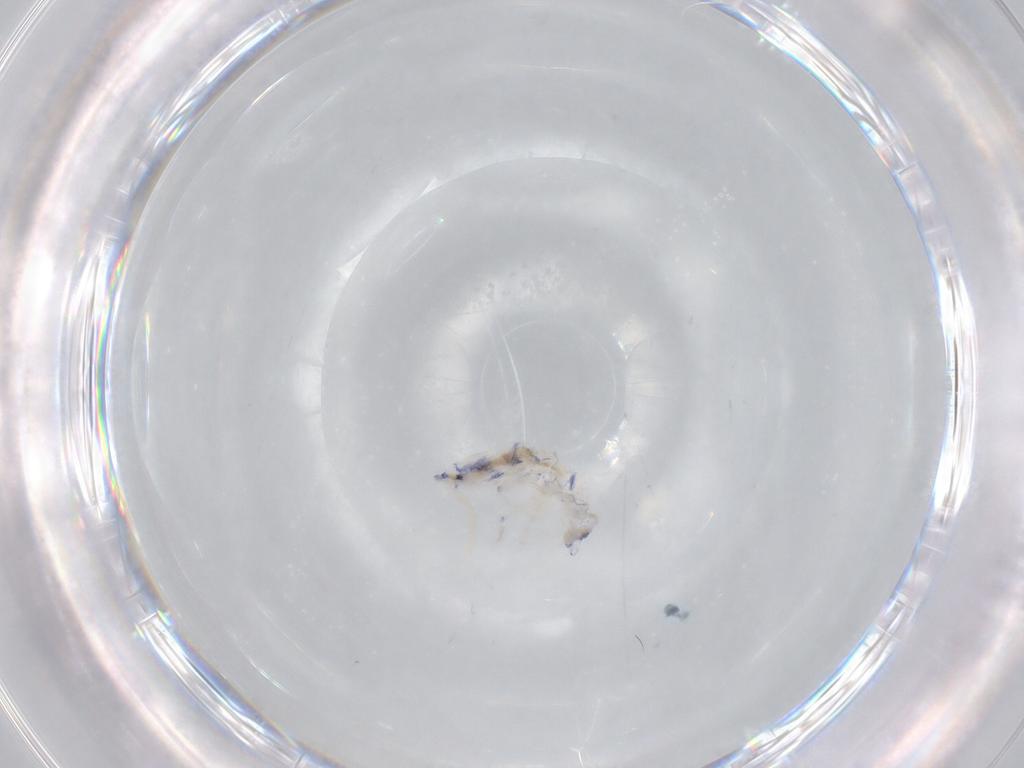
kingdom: Animalia
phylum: Arthropoda
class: Collembola
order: Entomobryomorpha
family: Entomobryidae
